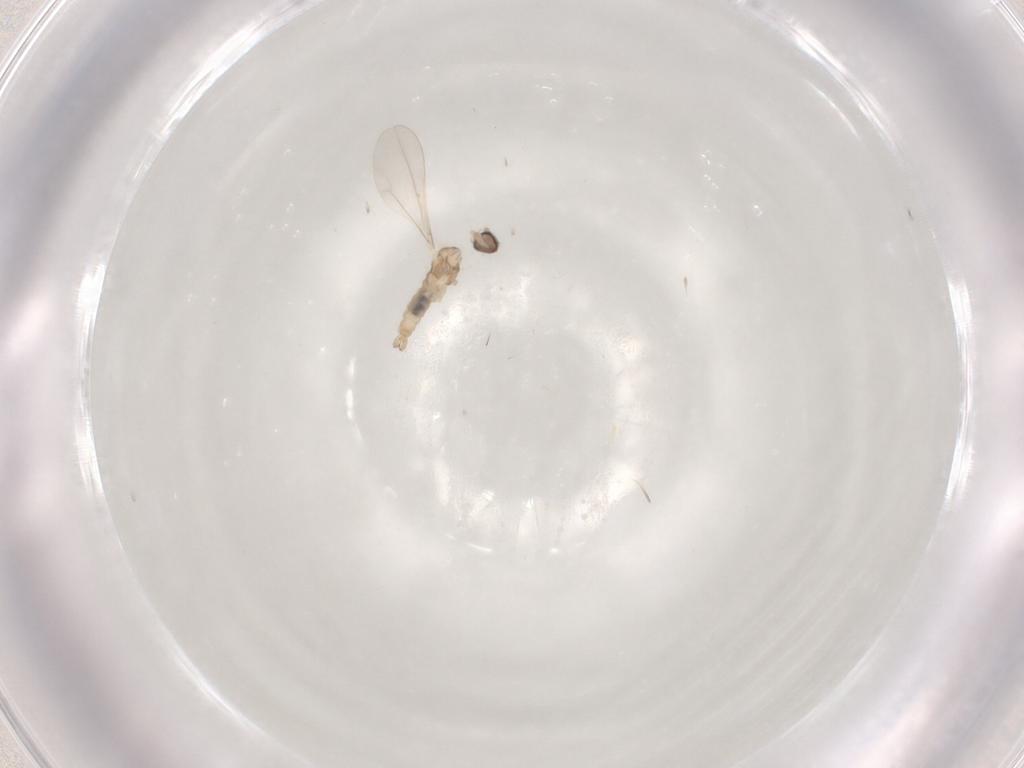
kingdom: Animalia
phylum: Arthropoda
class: Insecta
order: Diptera
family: Cecidomyiidae
